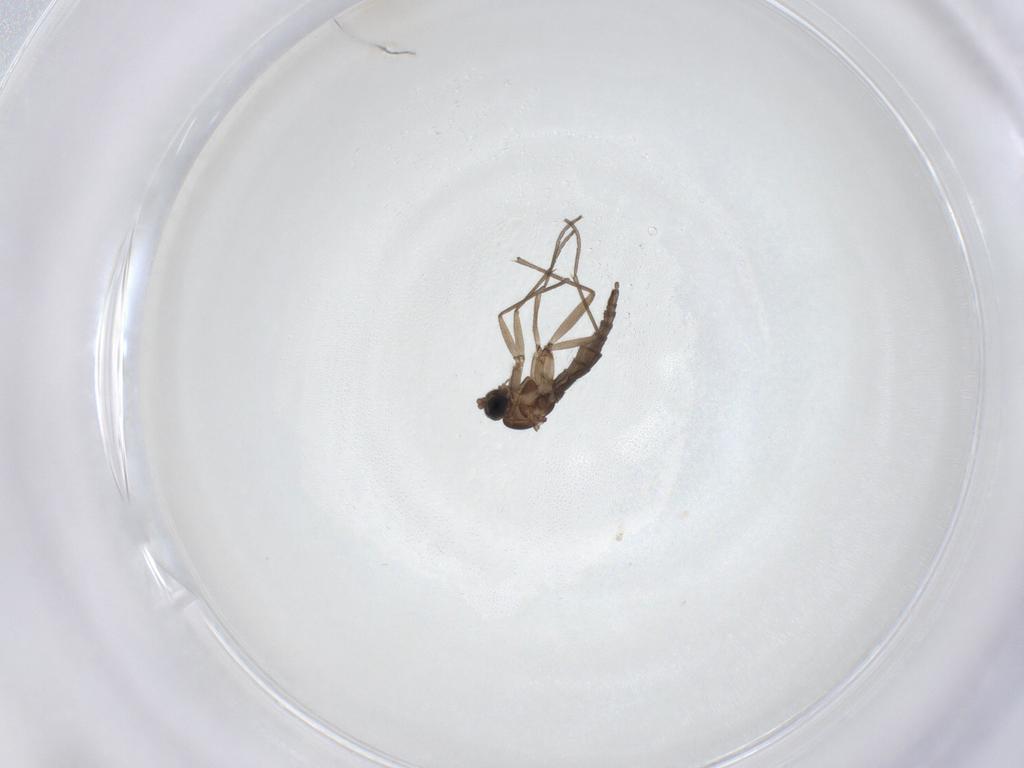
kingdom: Animalia
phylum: Arthropoda
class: Insecta
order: Diptera
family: Sciaridae
